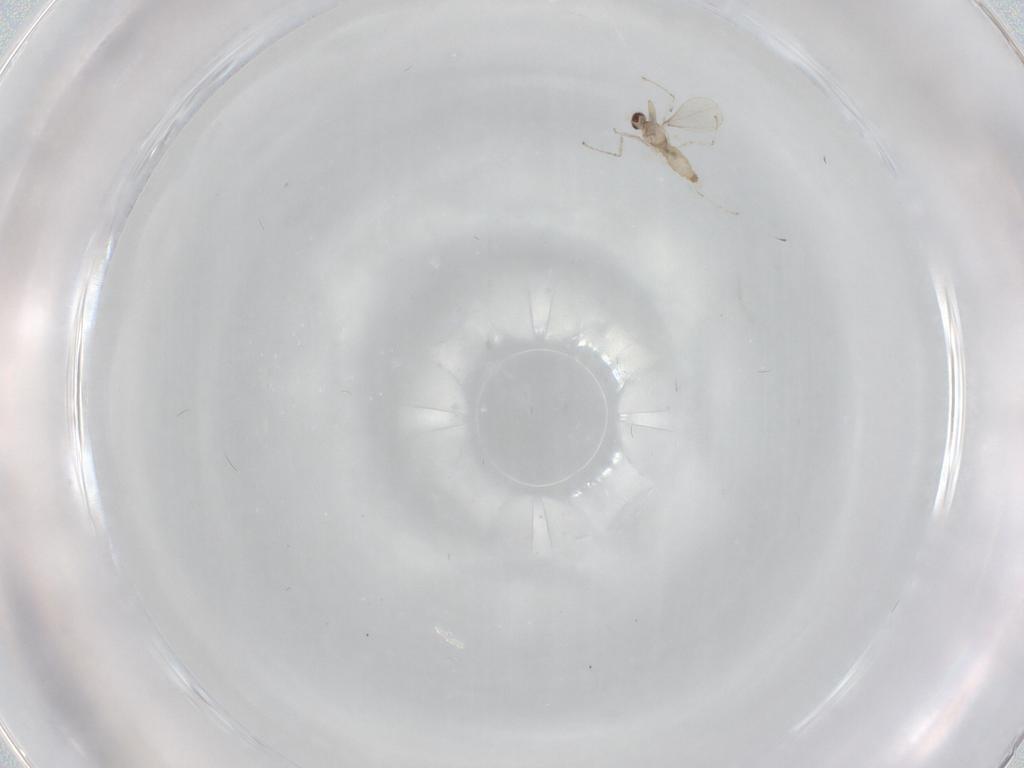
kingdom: Animalia
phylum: Arthropoda
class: Insecta
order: Diptera
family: Cecidomyiidae
